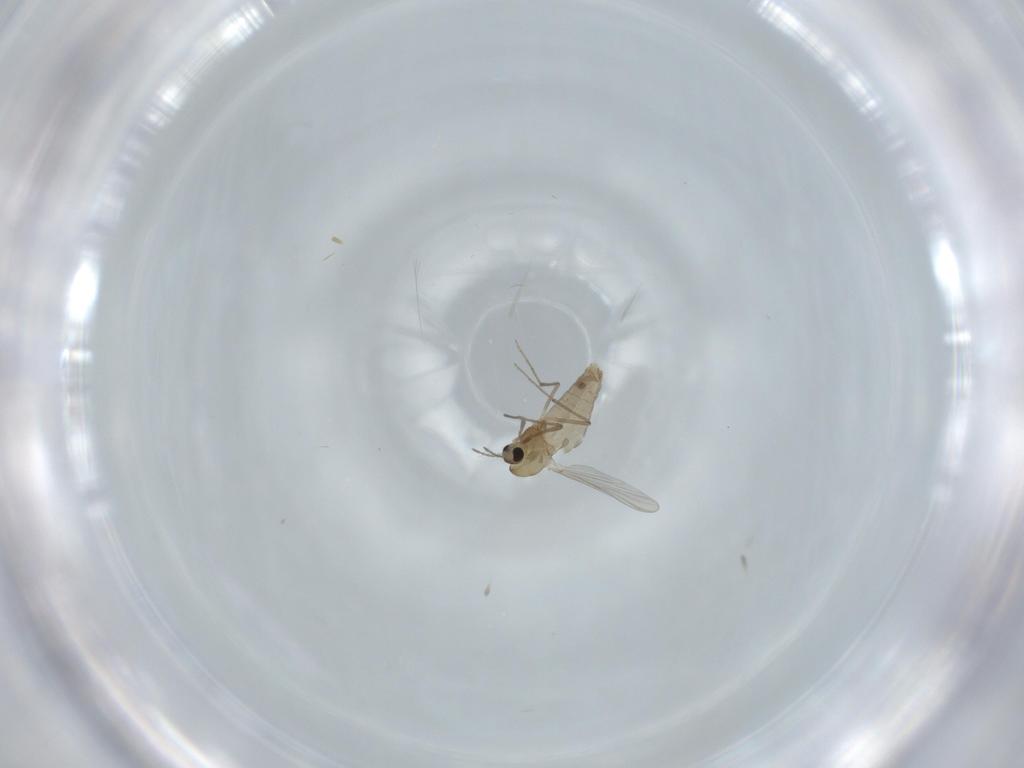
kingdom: Animalia
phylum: Arthropoda
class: Insecta
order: Diptera
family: Chironomidae
